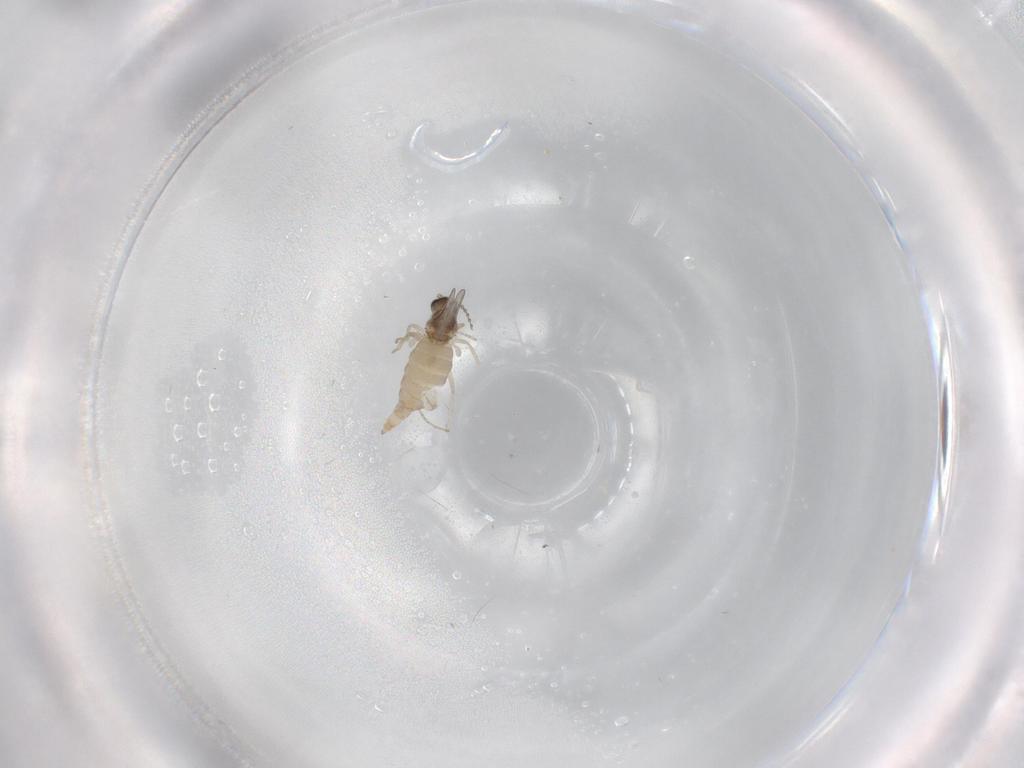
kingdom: Animalia
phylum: Arthropoda
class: Insecta
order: Diptera
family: Cecidomyiidae
